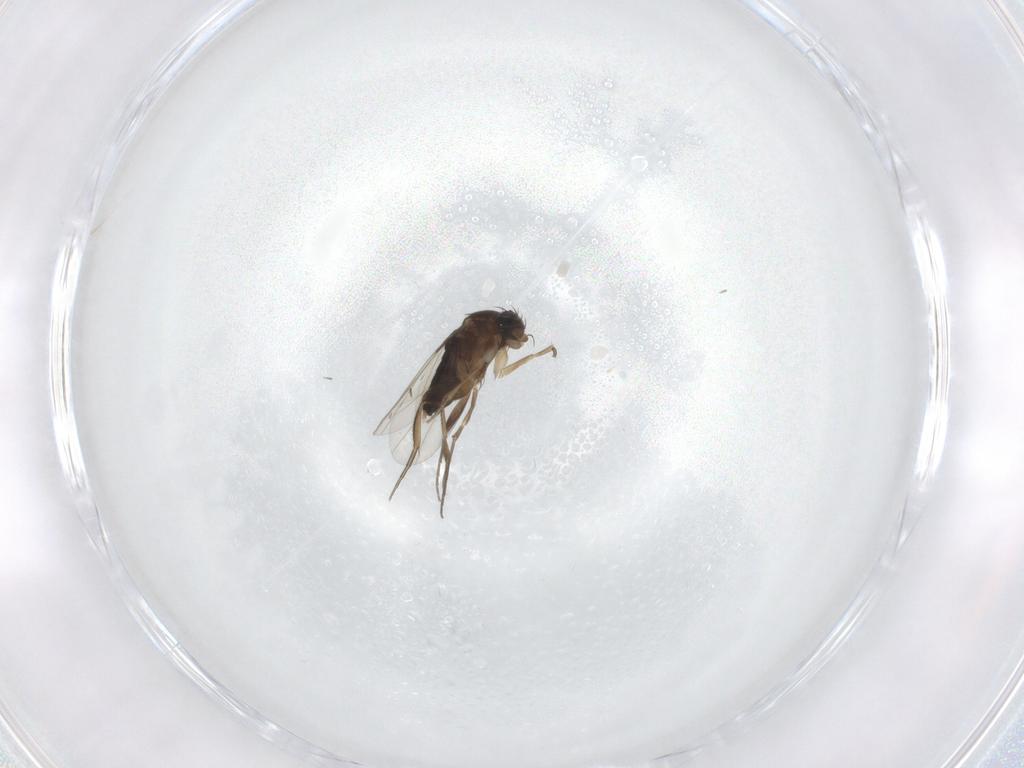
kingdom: Animalia
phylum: Arthropoda
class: Insecta
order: Diptera
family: Phoridae
